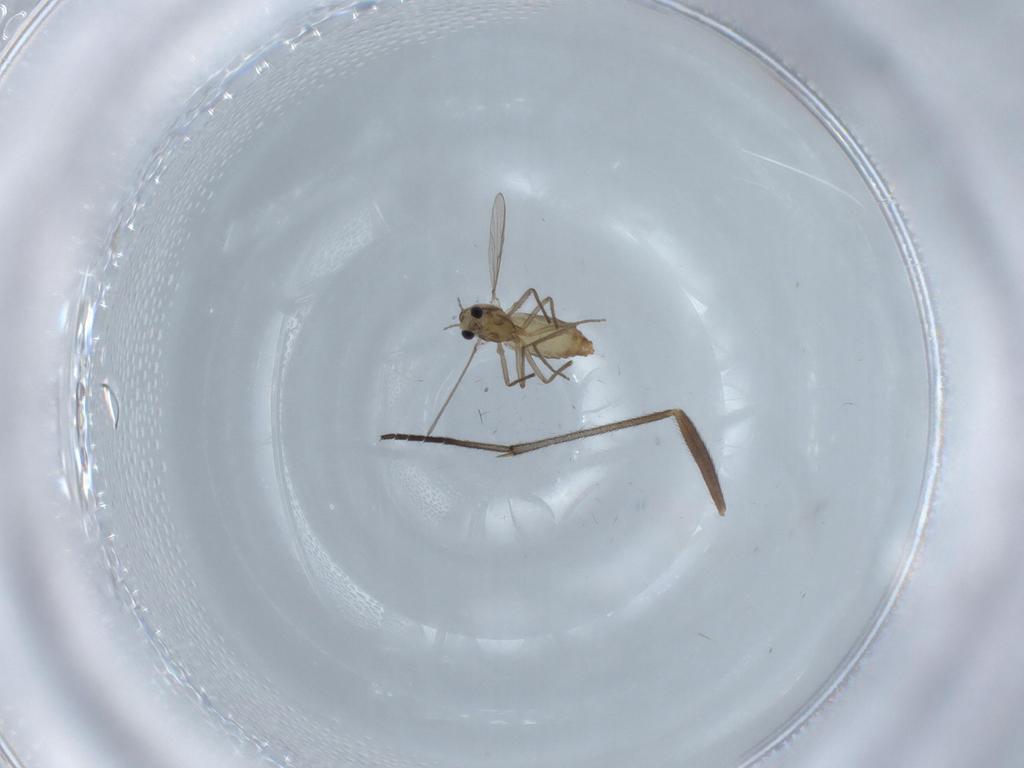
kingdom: Animalia
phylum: Arthropoda
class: Insecta
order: Diptera
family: Chironomidae
